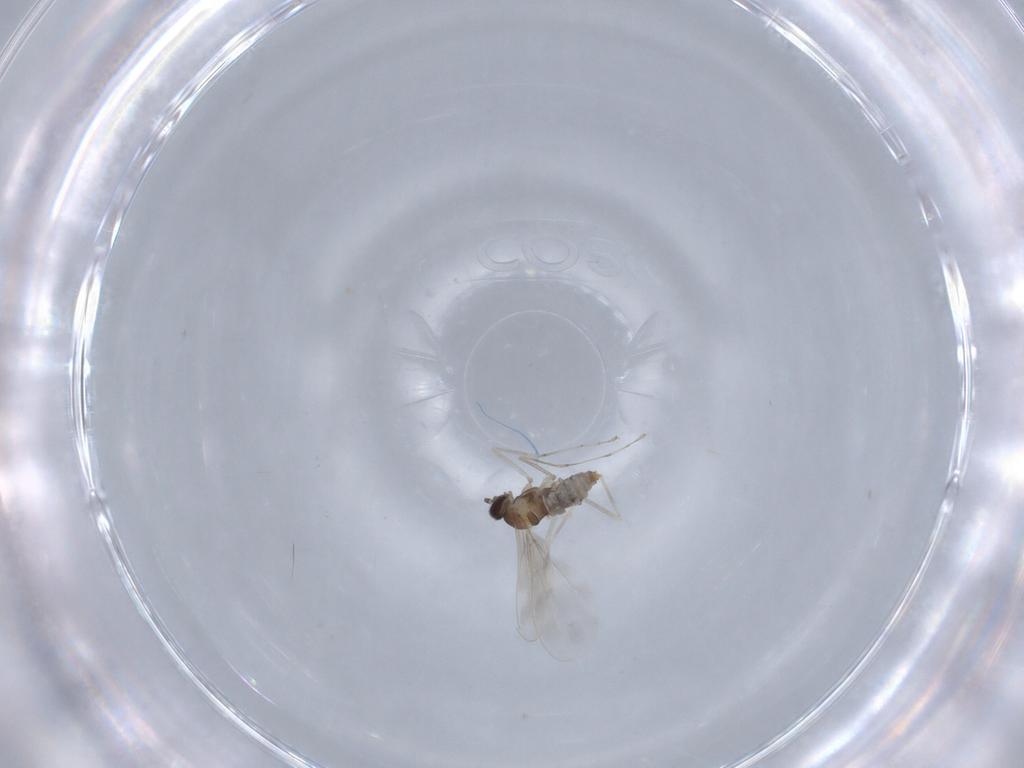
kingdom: Animalia
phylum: Arthropoda
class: Insecta
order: Diptera
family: Cecidomyiidae
